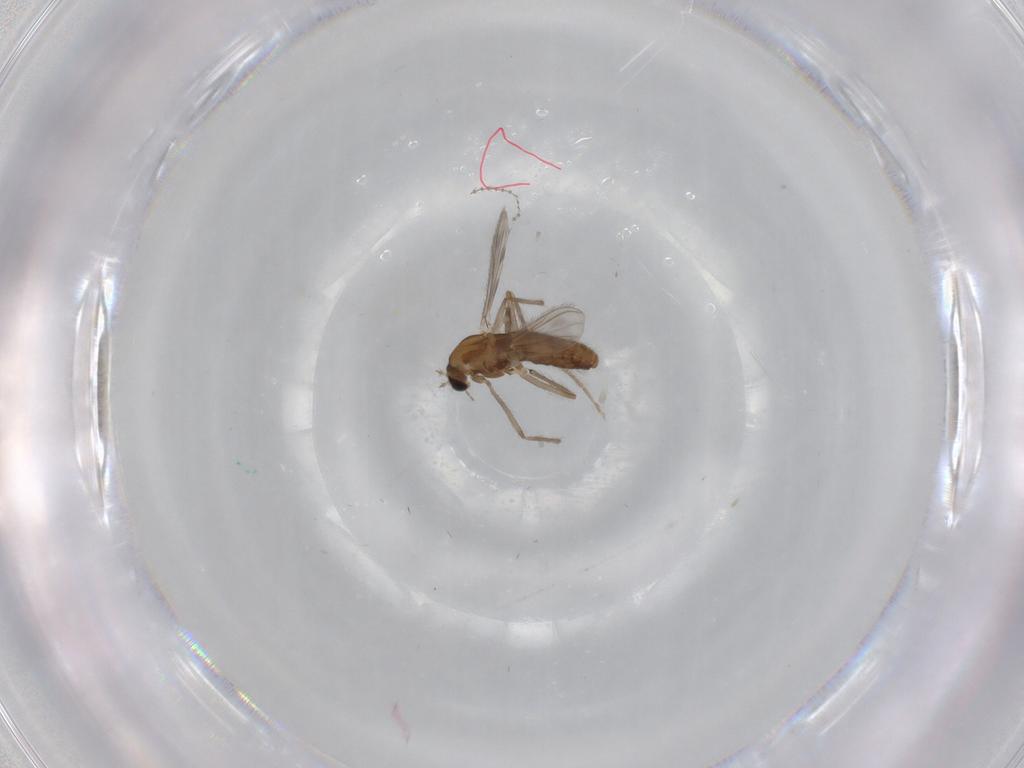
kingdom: Animalia
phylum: Arthropoda
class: Insecta
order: Diptera
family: Chironomidae
